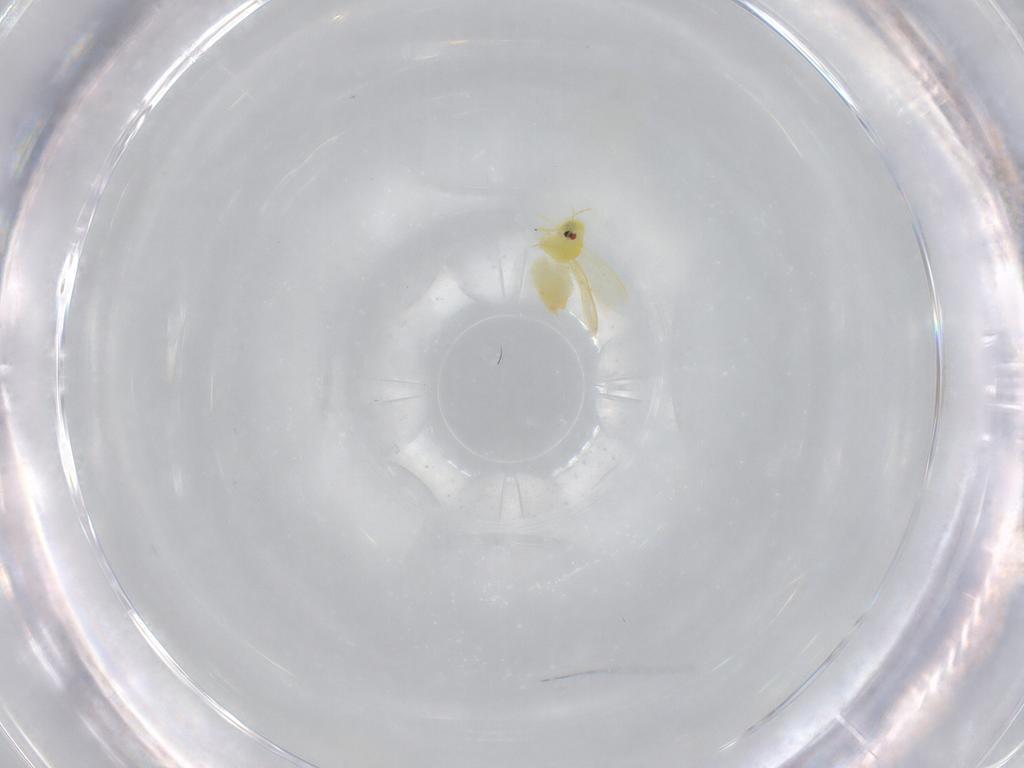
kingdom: Animalia
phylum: Arthropoda
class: Insecta
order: Hemiptera
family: Aleyrodidae
